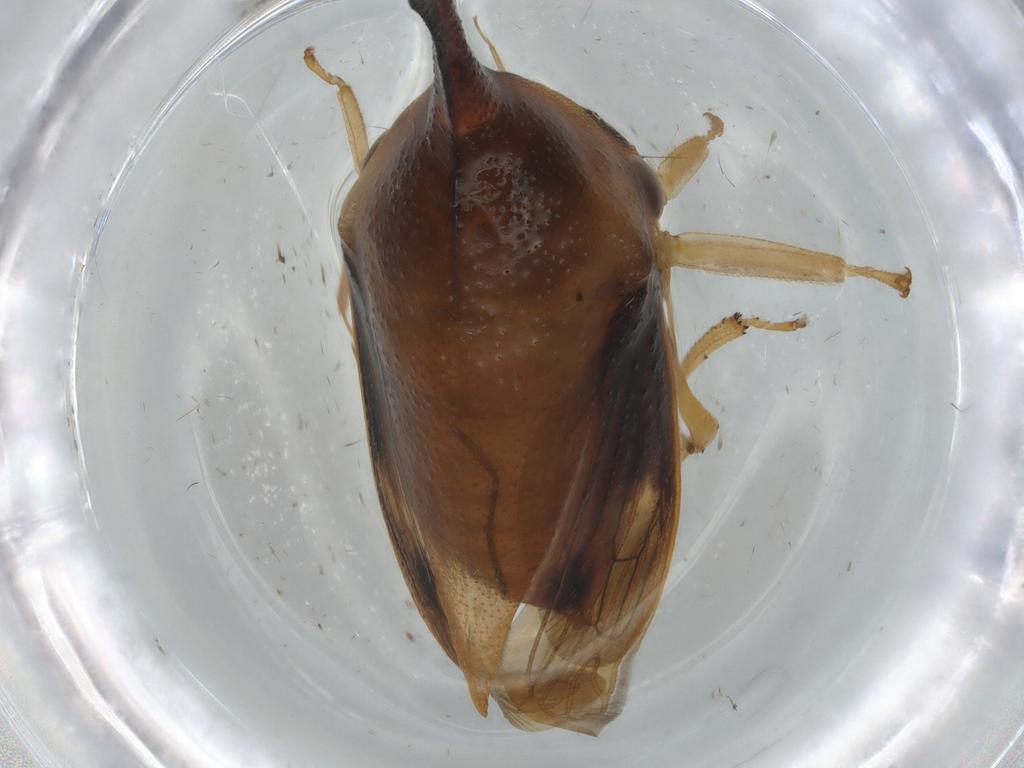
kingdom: Animalia
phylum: Arthropoda
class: Insecta
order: Hemiptera
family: Membracidae
